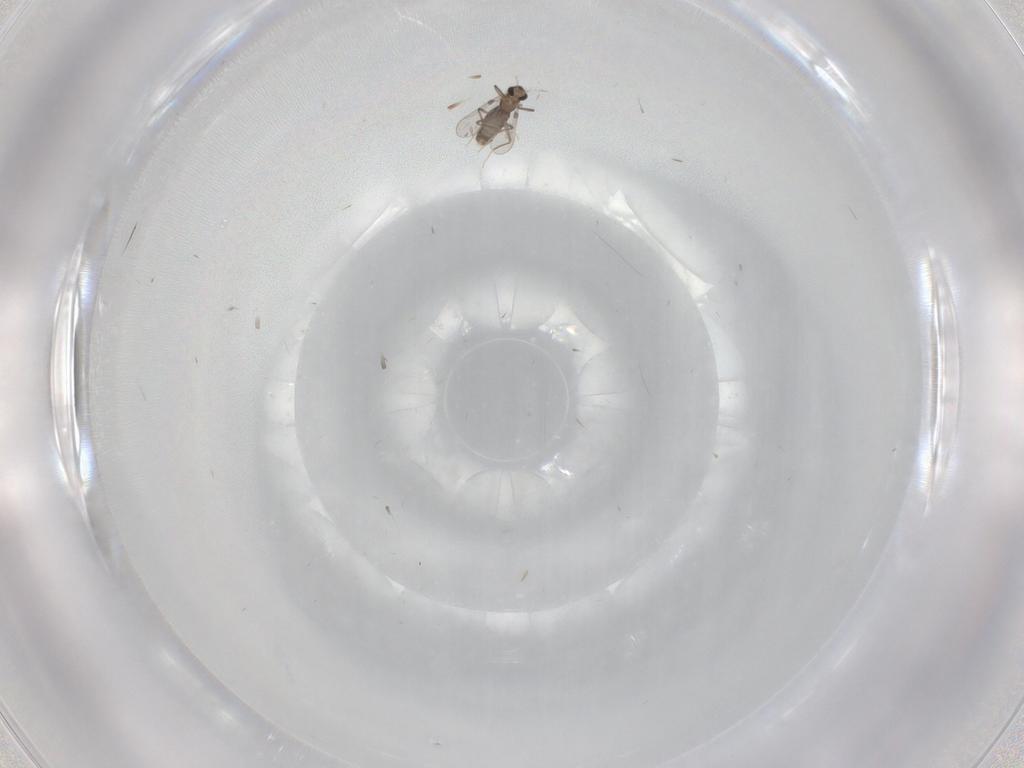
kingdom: Animalia
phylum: Arthropoda
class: Insecta
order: Diptera
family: Chironomidae
